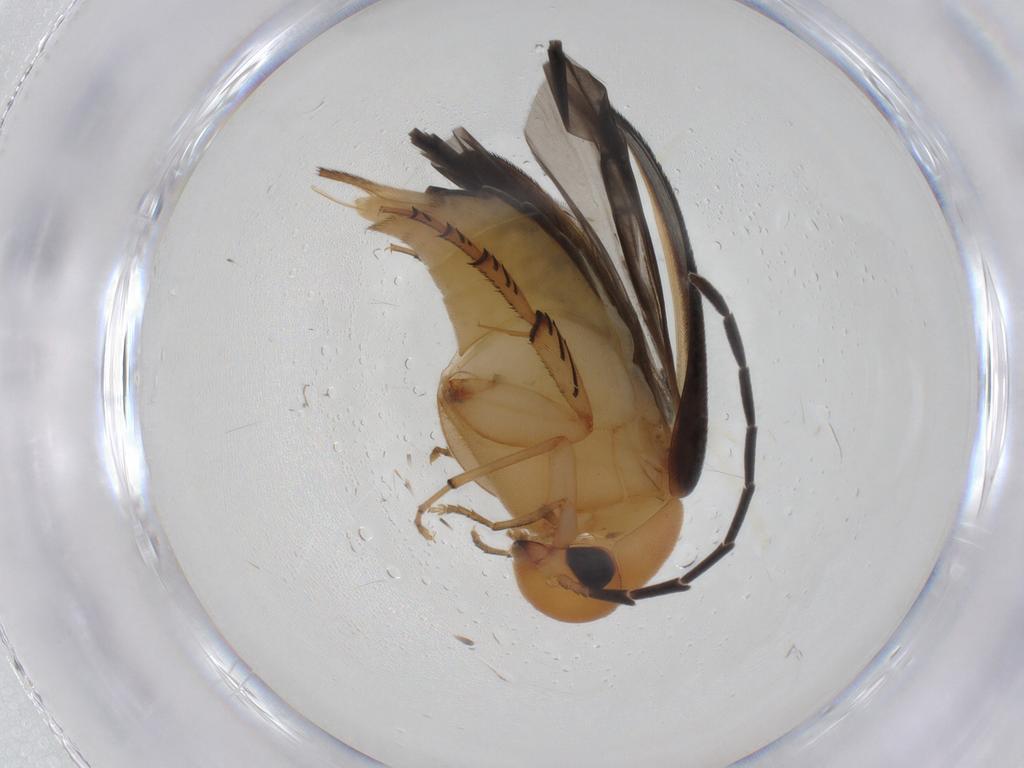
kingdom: Animalia
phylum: Arthropoda
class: Insecta
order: Coleoptera
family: Mordellidae
